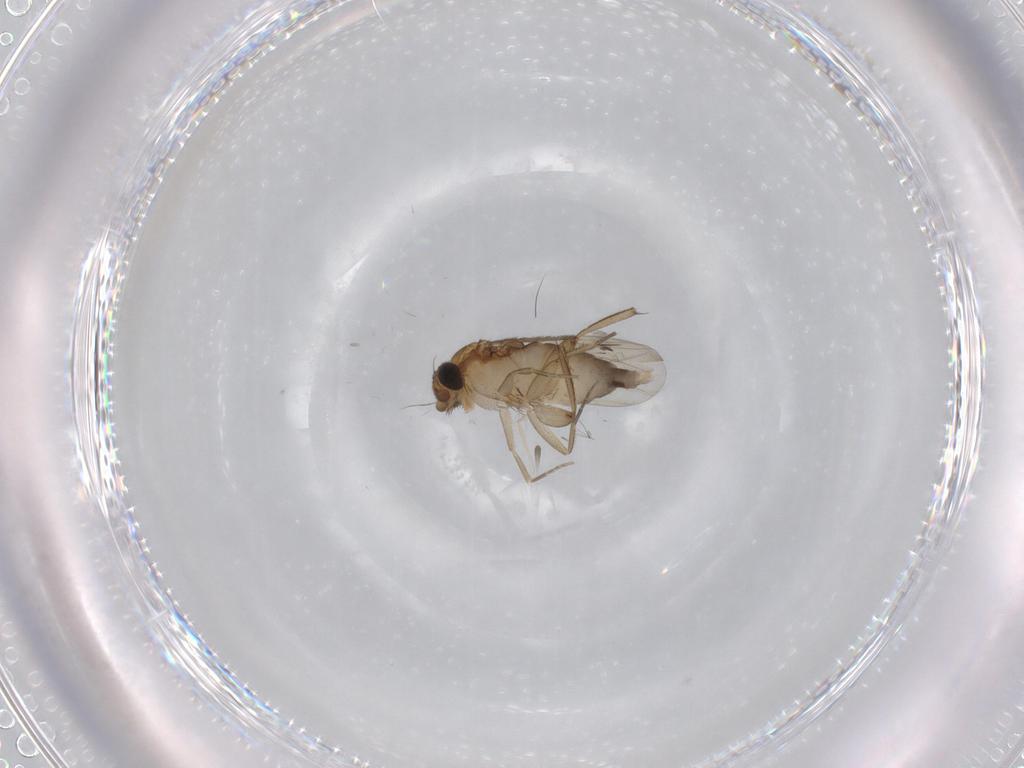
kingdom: Animalia
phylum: Arthropoda
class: Insecta
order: Diptera
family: Phoridae
